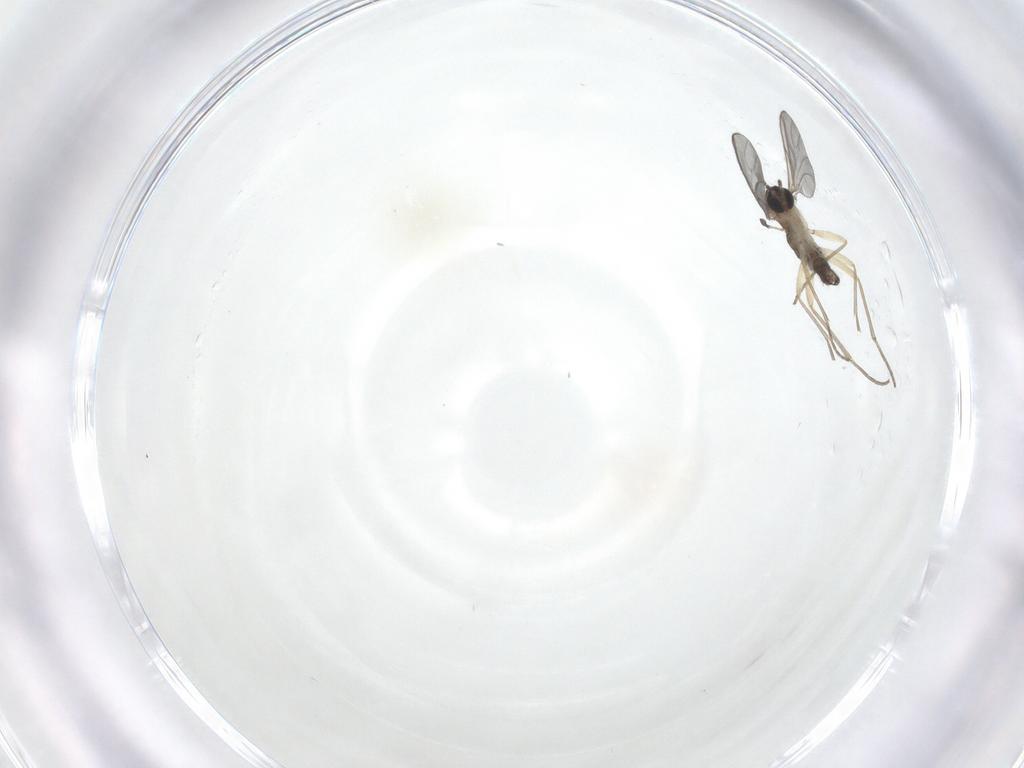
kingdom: Animalia
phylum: Arthropoda
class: Insecta
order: Diptera
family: Sciaridae
